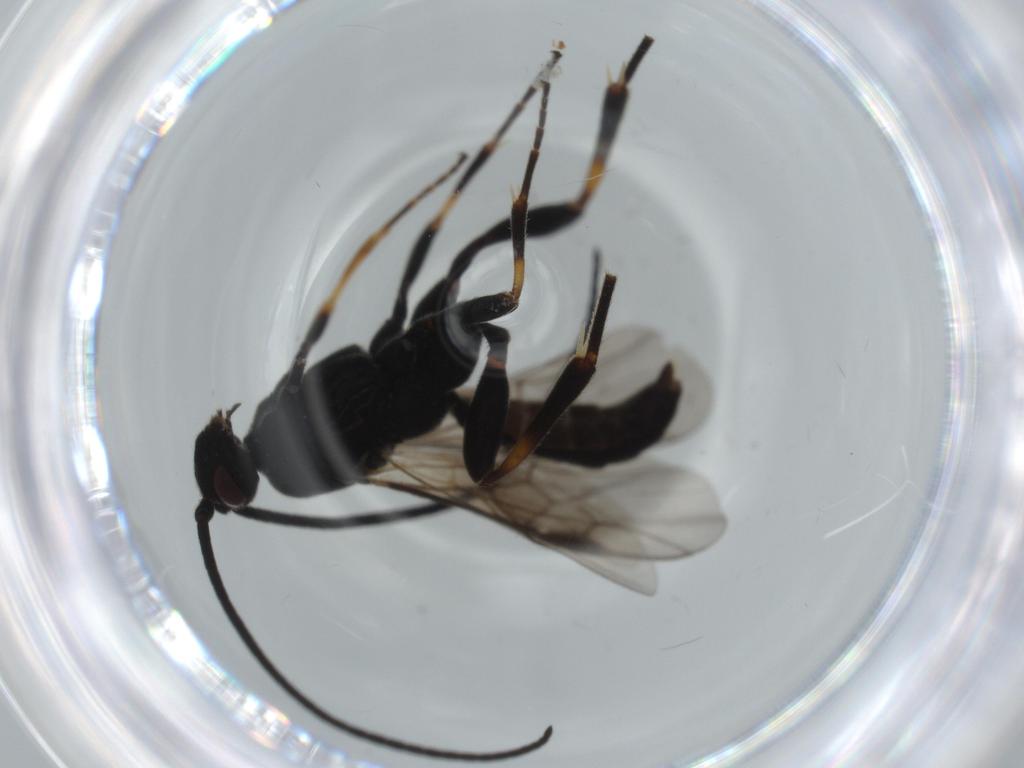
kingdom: Animalia
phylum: Arthropoda
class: Insecta
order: Hymenoptera
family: Braconidae
